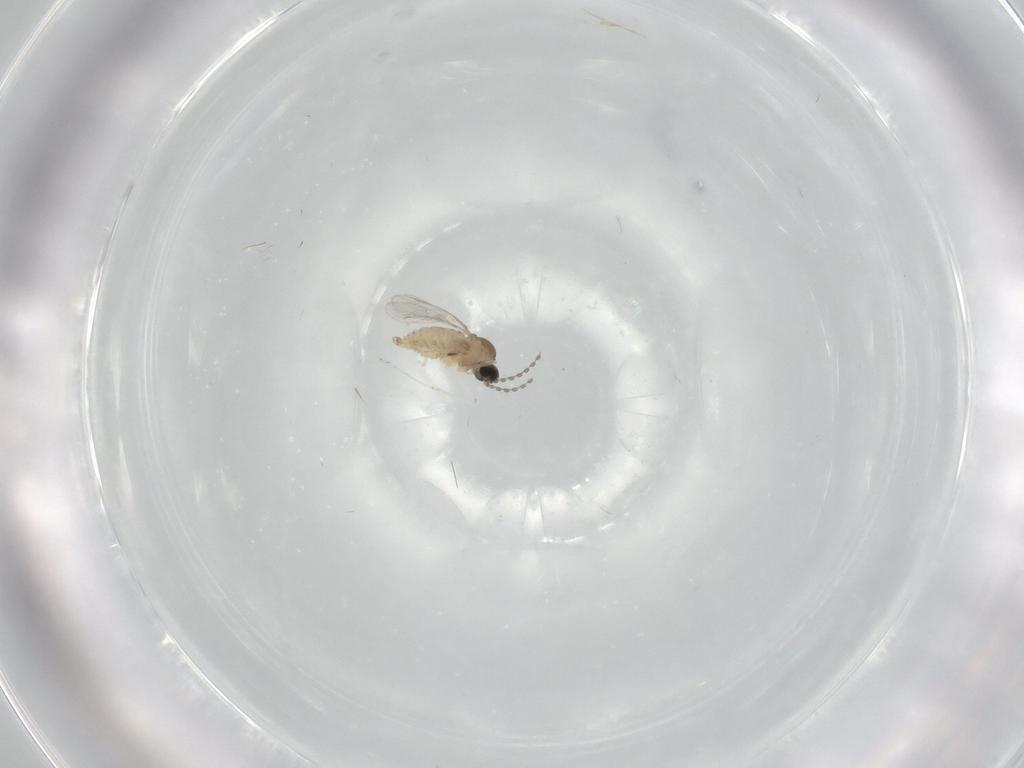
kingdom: Animalia
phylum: Arthropoda
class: Insecta
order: Diptera
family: Cecidomyiidae
